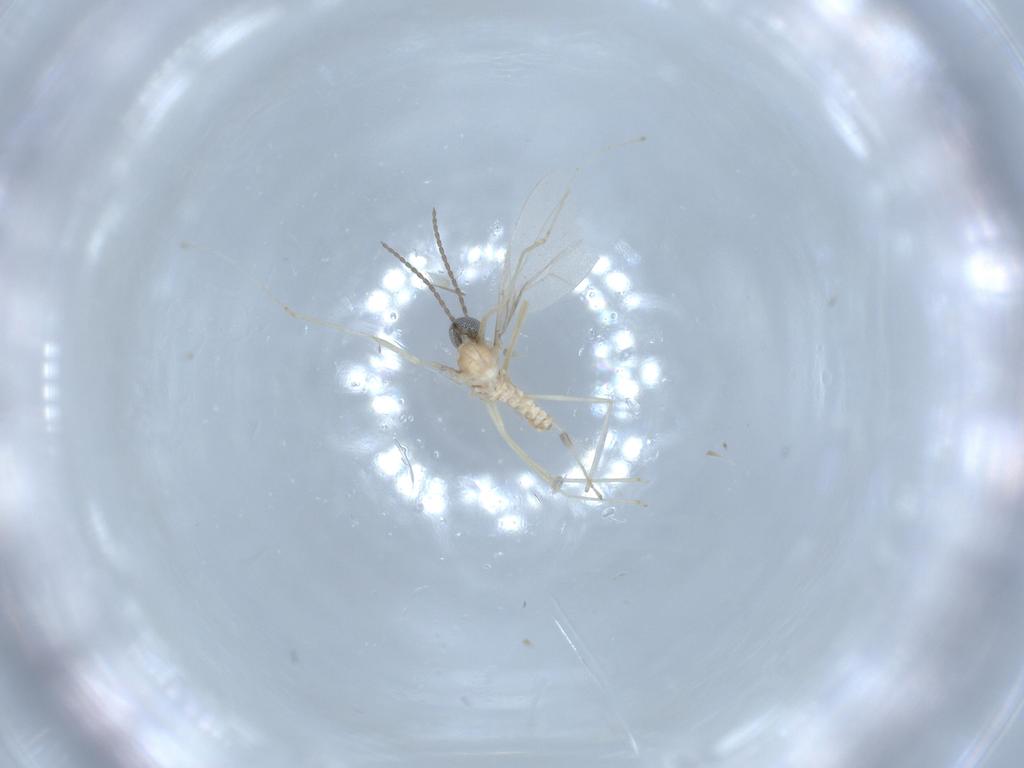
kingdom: Animalia
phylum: Arthropoda
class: Insecta
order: Diptera
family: Cecidomyiidae
